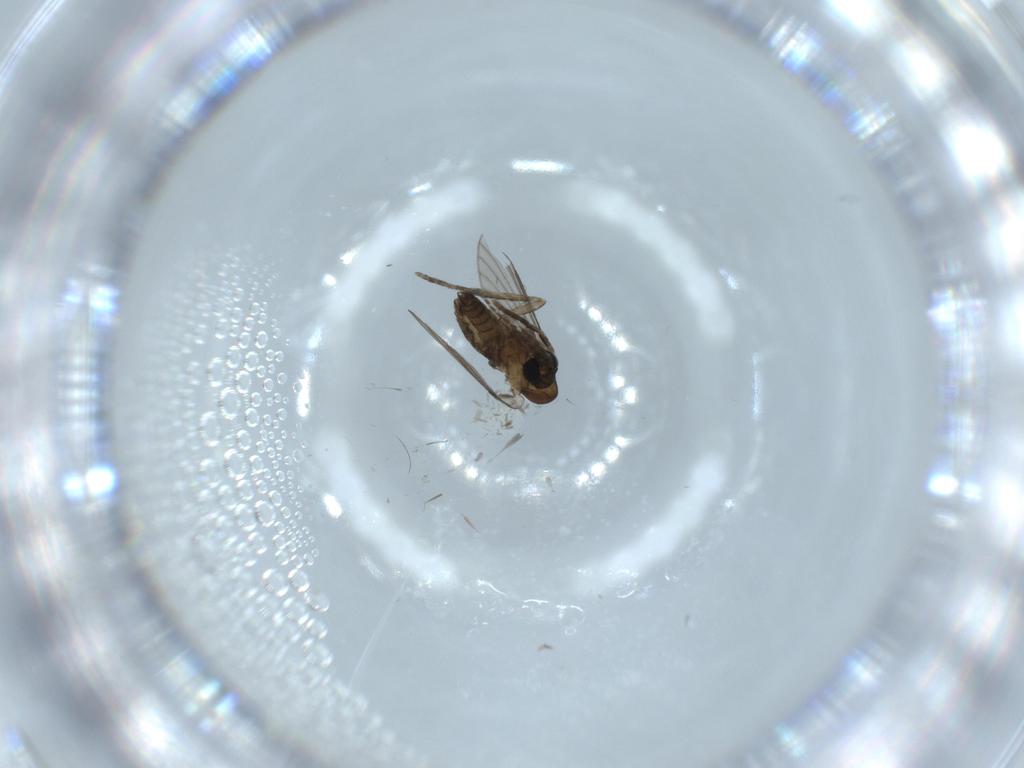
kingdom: Animalia
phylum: Arthropoda
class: Insecta
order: Diptera
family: Psychodidae
